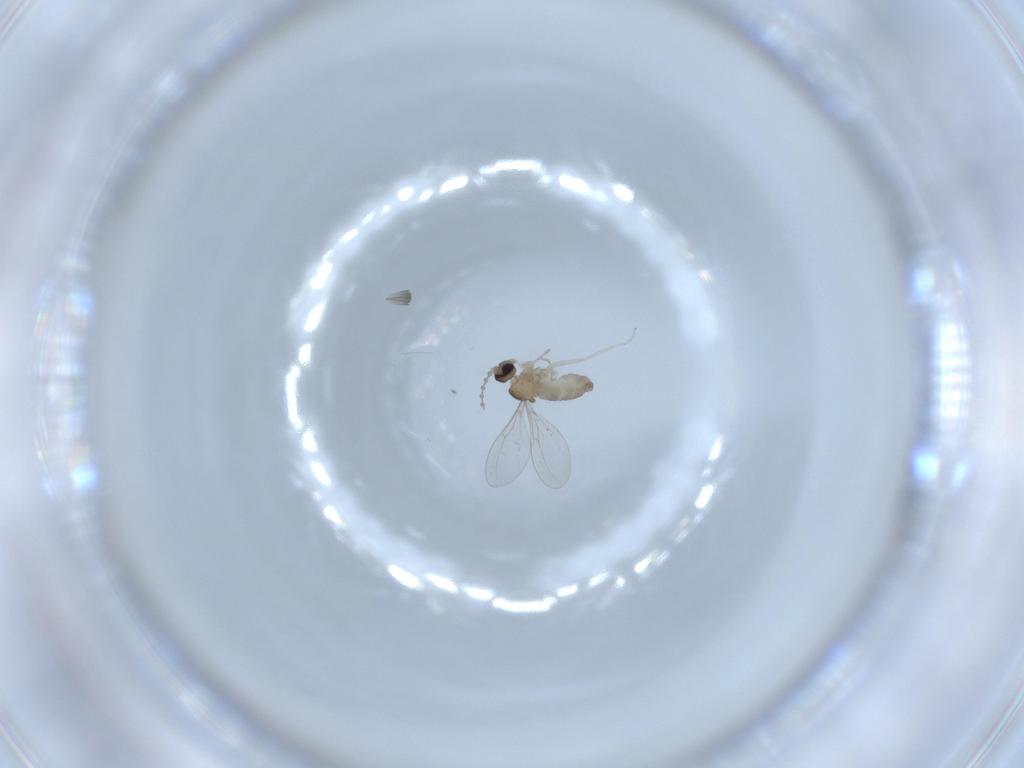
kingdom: Animalia
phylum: Arthropoda
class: Insecta
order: Diptera
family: Cecidomyiidae
